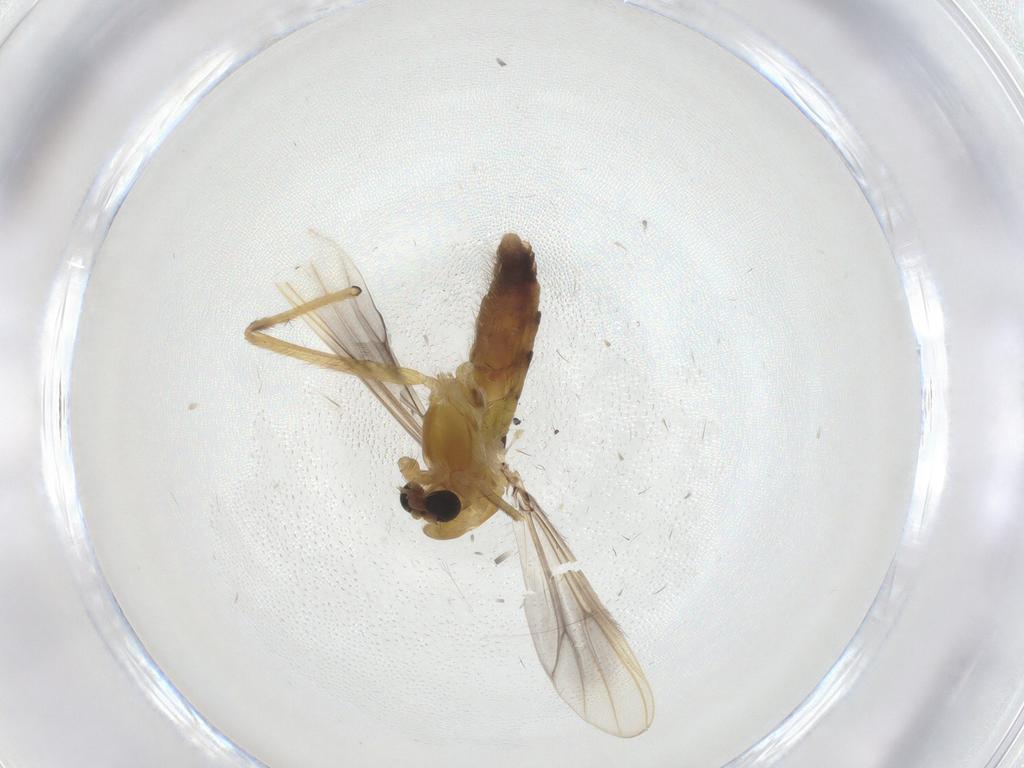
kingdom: Animalia
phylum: Arthropoda
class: Insecta
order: Diptera
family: Chironomidae
